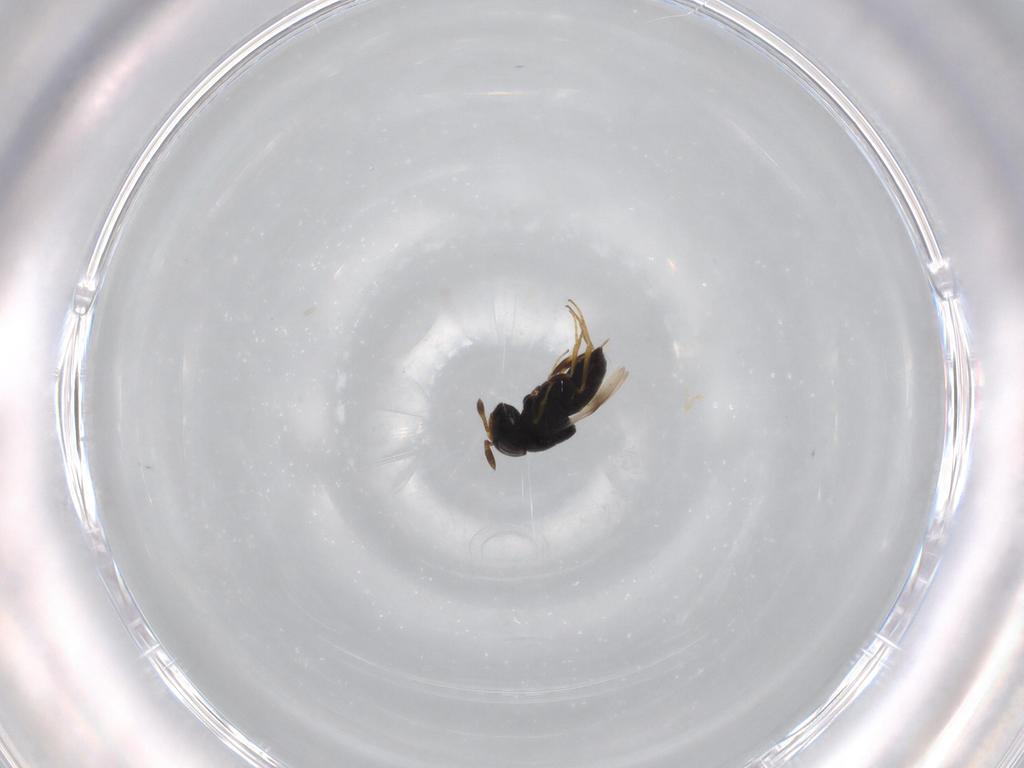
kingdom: Animalia
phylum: Arthropoda
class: Insecta
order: Hymenoptera
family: Scelionidae
